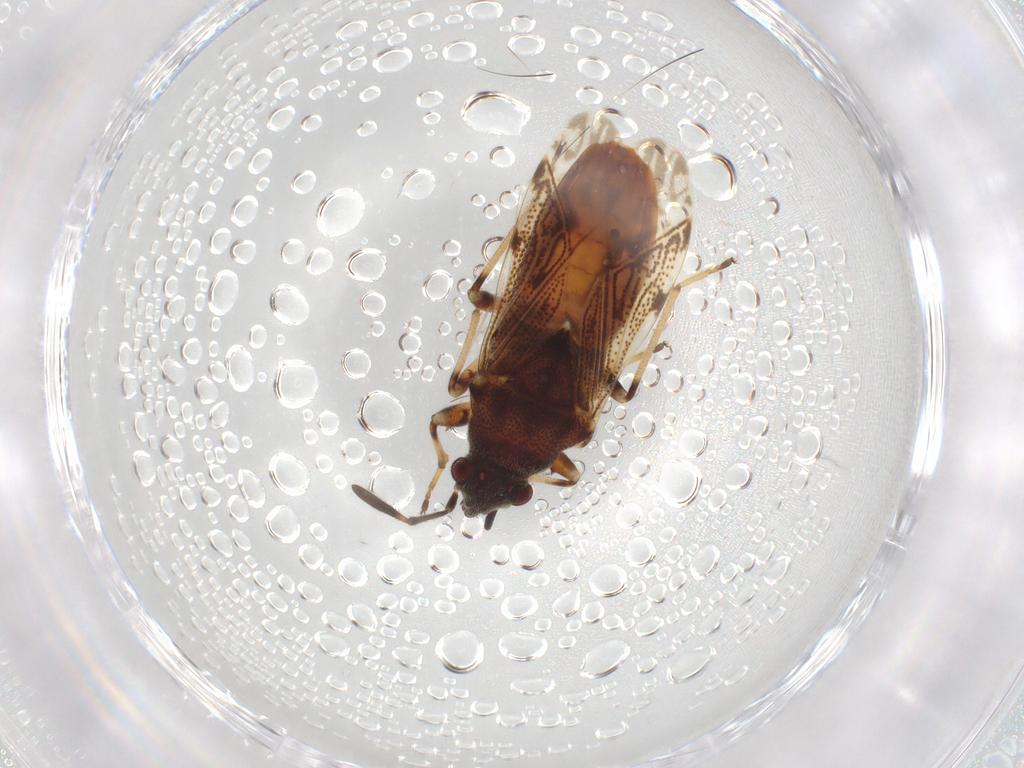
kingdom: Animalia
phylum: Arthropoda
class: Insecta
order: Hemiptera
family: Rhyparochromidae
